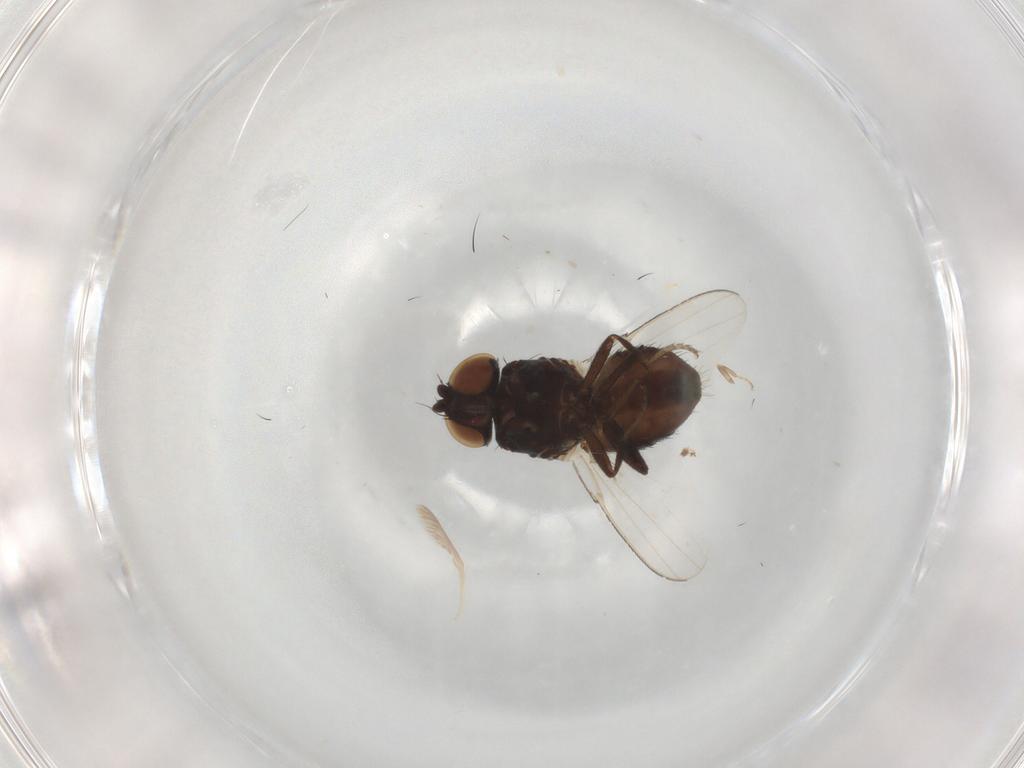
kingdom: Animalia
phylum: Arthropoda
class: Insecta
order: Diptera
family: Milichiidae
